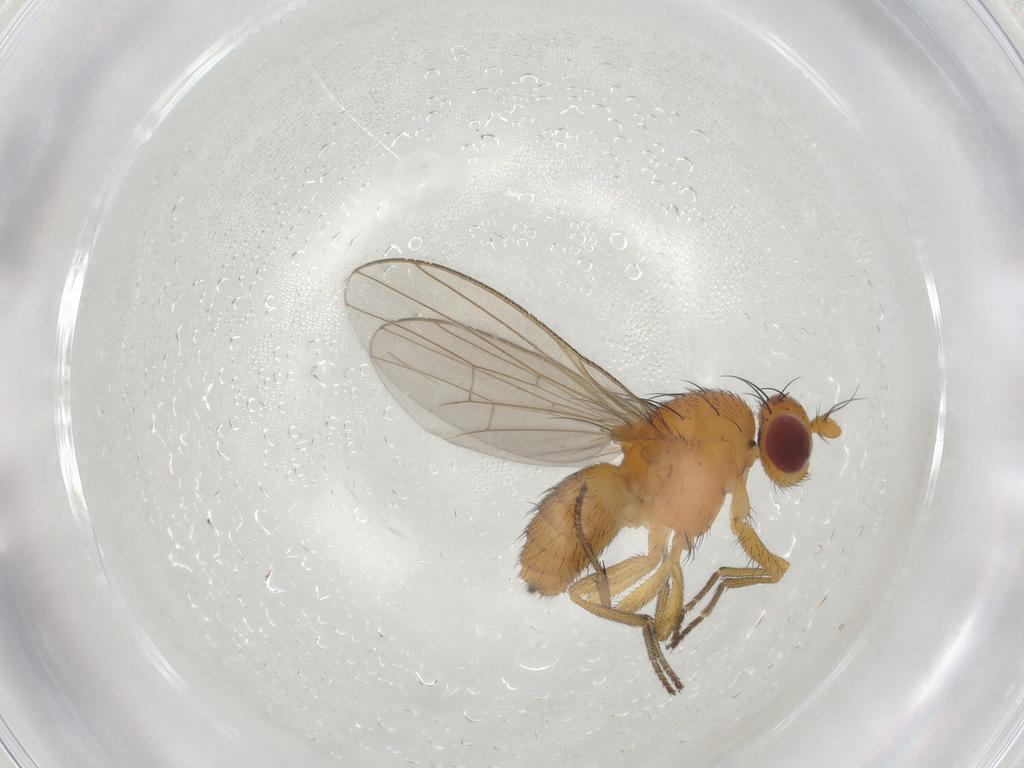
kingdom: Animalia
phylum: Arthropoda
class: Insecta
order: Diptera
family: Lauxaniidae
